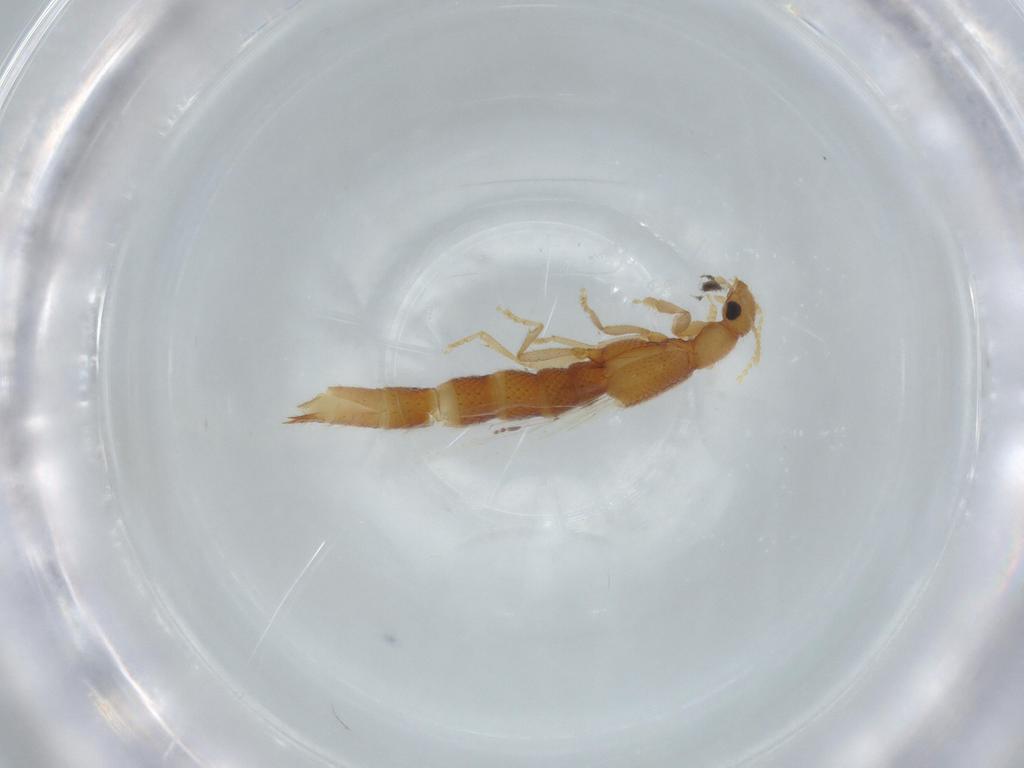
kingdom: Animalia
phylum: Arthropoda
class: Insecta
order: Coleoptera
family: Staphylinidae
